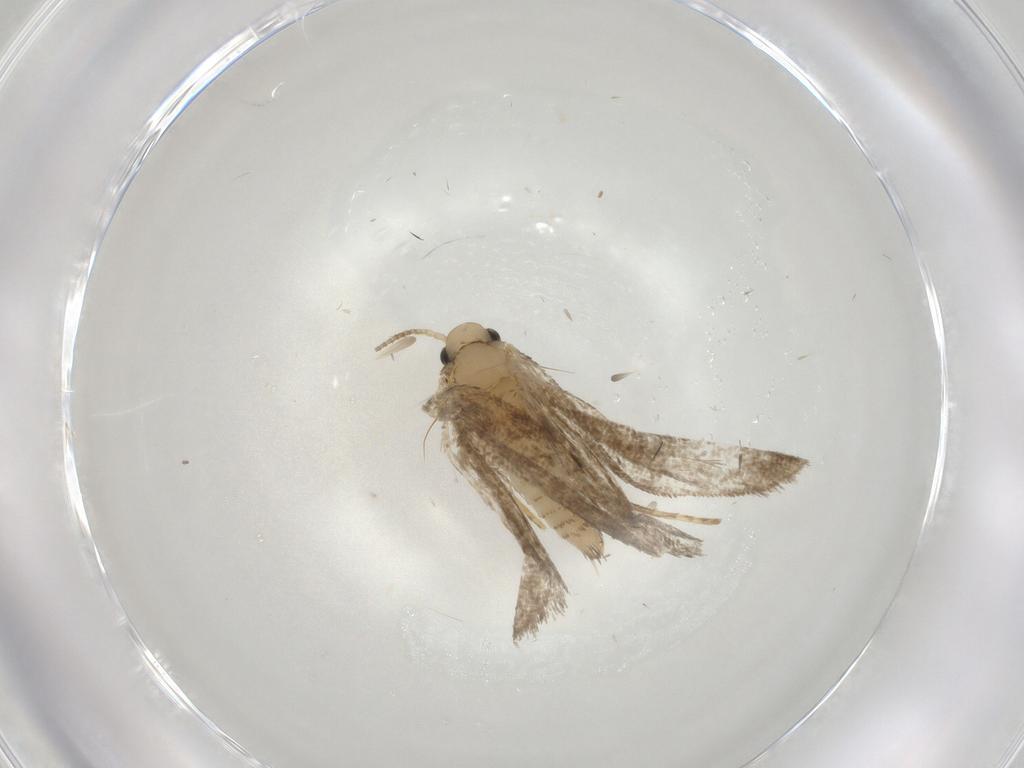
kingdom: Animalia
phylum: Arthropoda
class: Insecta
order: Lepidoptera
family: Psychidae
